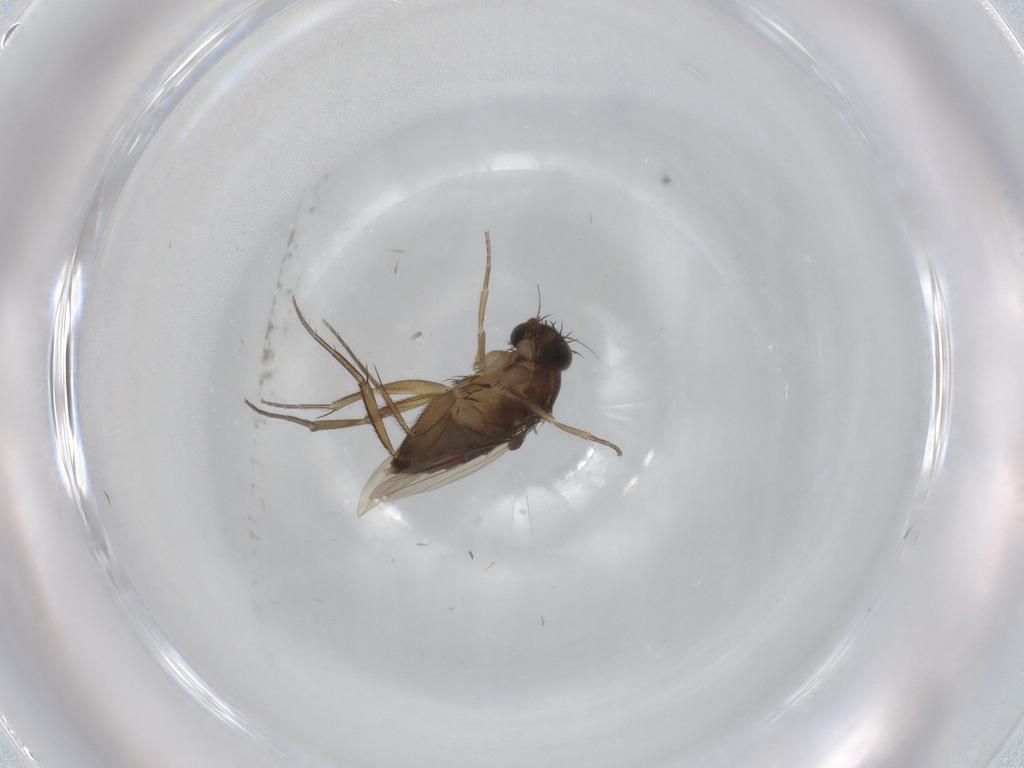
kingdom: Animalia
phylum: Arthropoda
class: Insecta
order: Diptera
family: Phoridae
